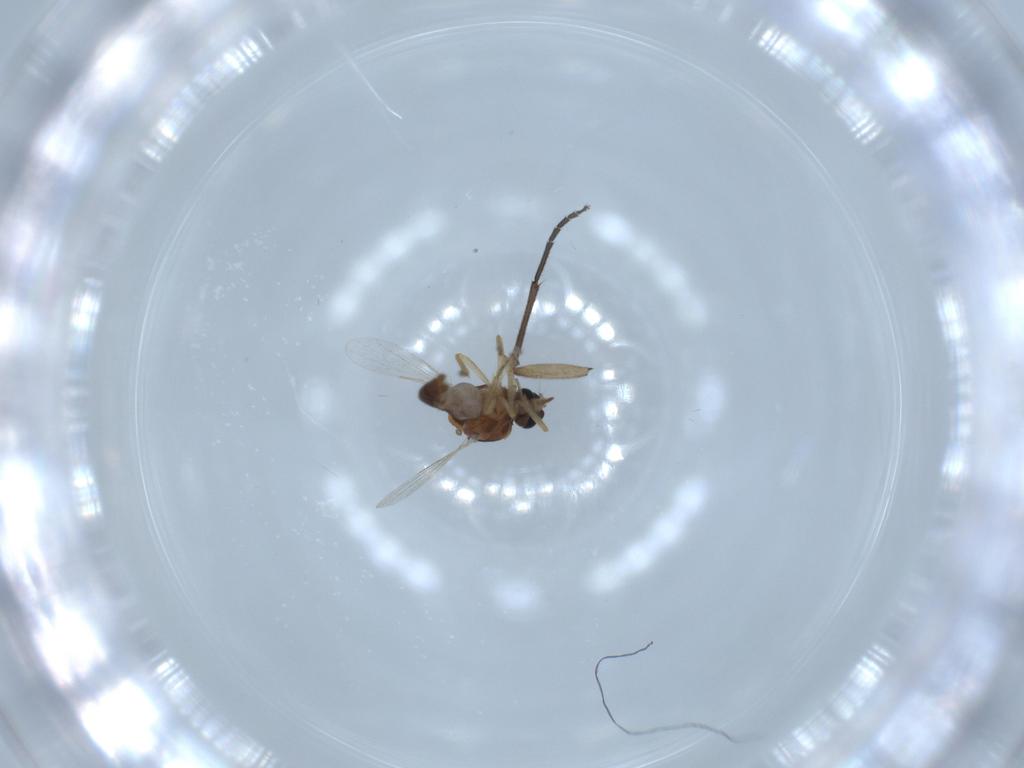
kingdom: Animalia
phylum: Arthropoda
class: Insecta
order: Diptera
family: Ceratopogonidae
